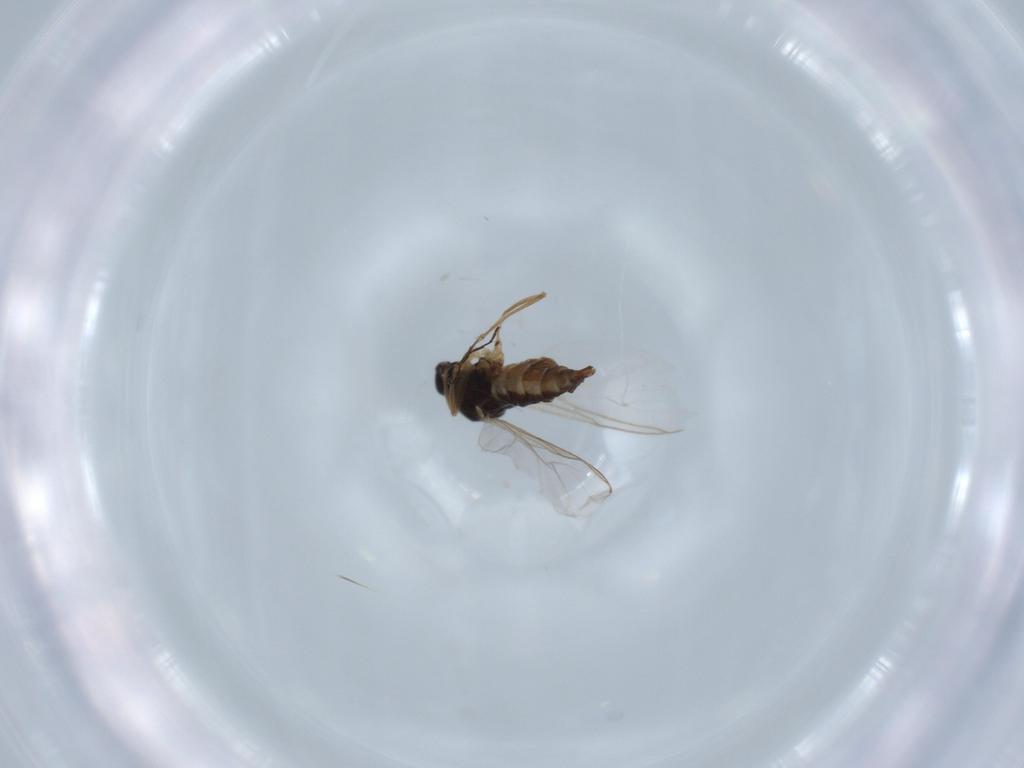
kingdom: Animalia
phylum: Arthropoda
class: Insecta
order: Diptera
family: Sciaridae
